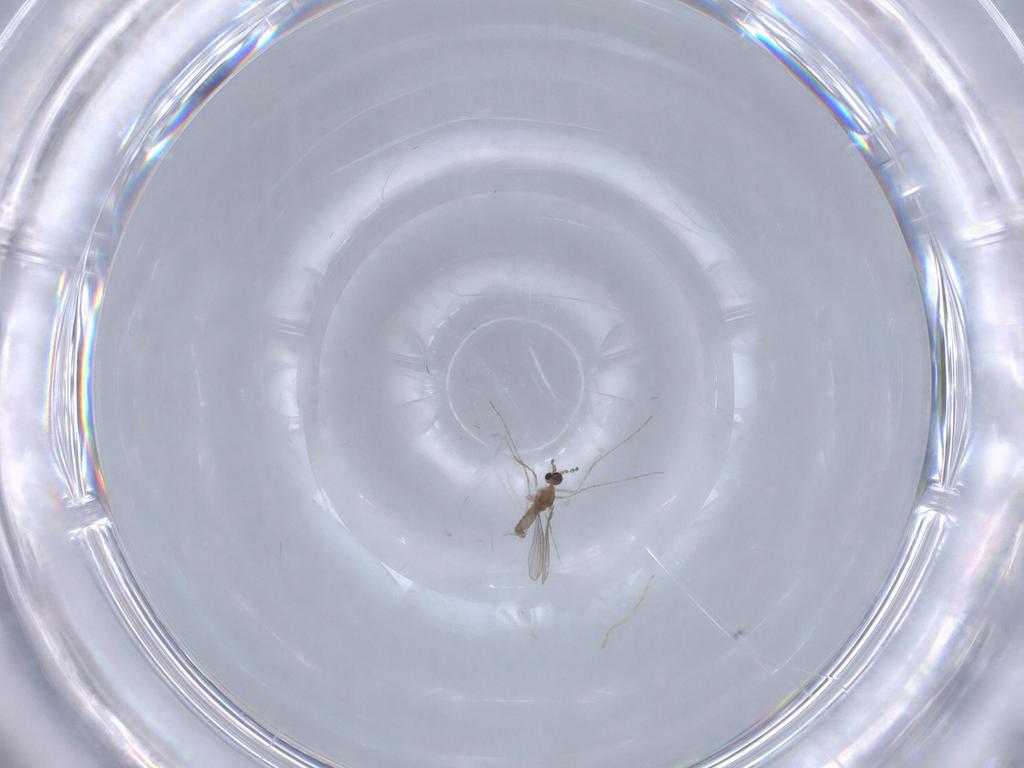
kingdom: Animalia
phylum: Arthropoda
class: Insecta
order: Diptera
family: Cecidomyiidae
